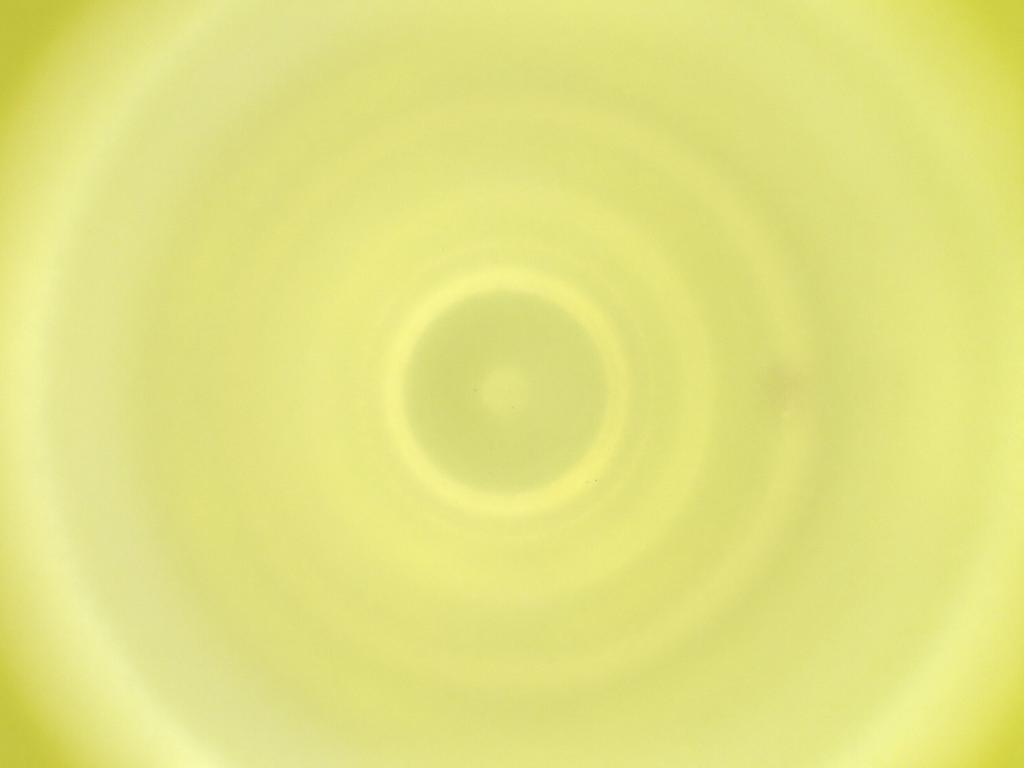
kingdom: Animalia
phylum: Arthropoda
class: Insecta
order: Diptera
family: Cecidomyiidae
